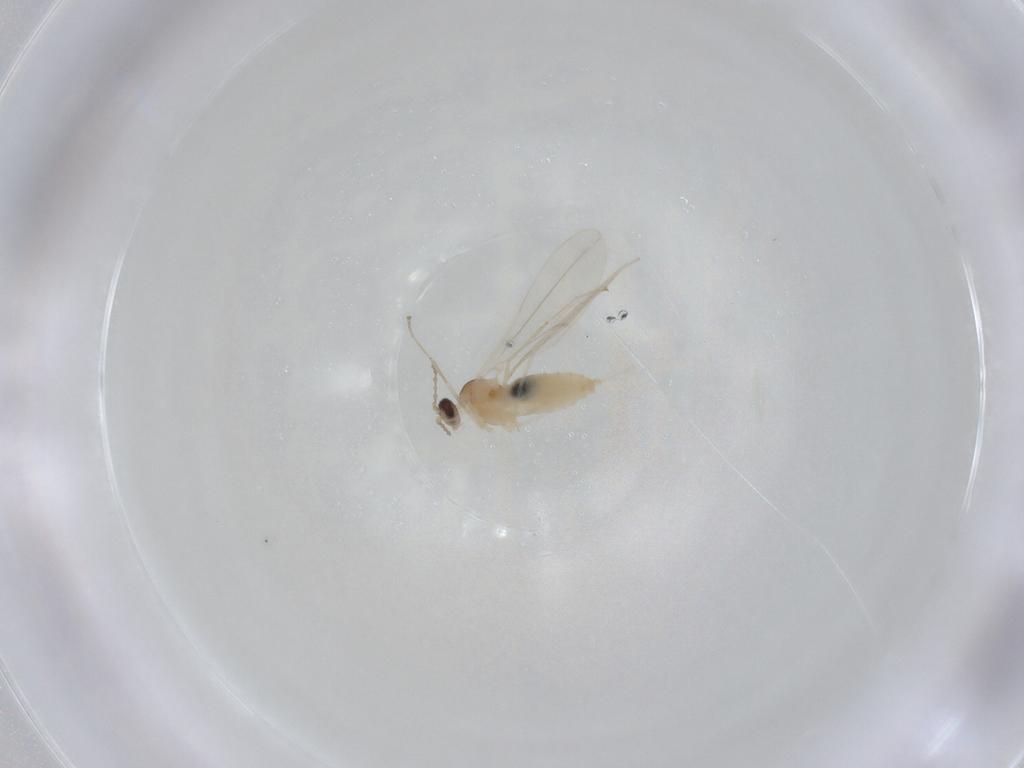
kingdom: Animalia
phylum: Arthropoda
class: Insecta
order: Diptera
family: Cecidomyiidae
